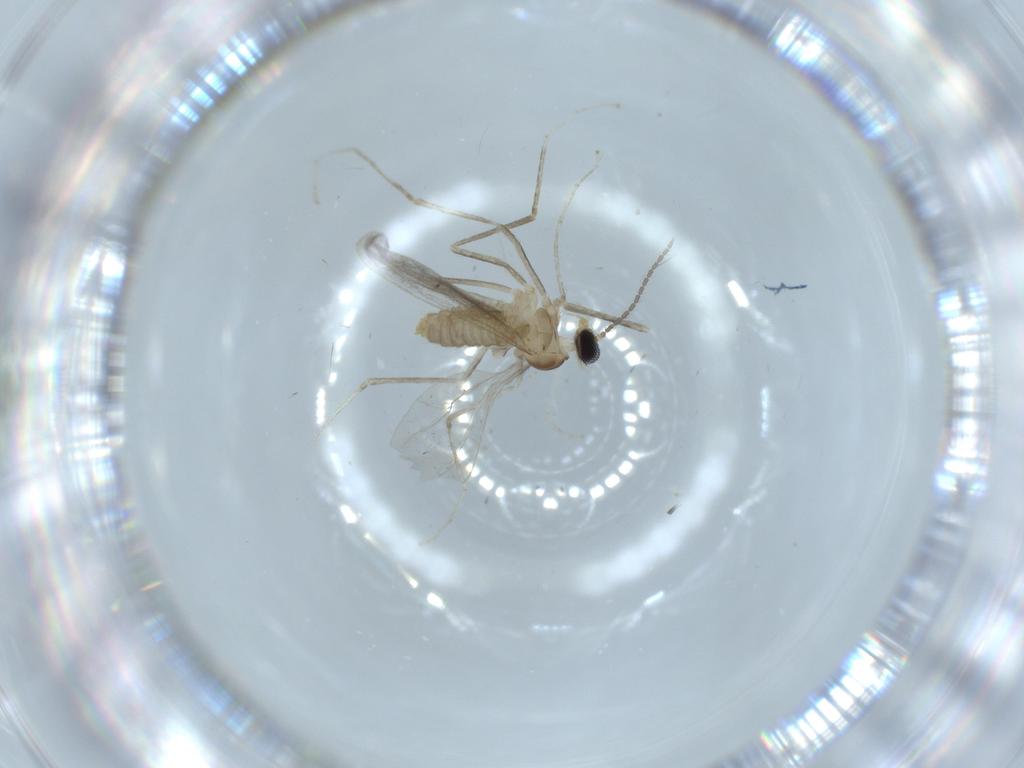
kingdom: Animalia
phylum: Arthropoda
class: Insecta
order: Diptera
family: Cecidomyiidae
